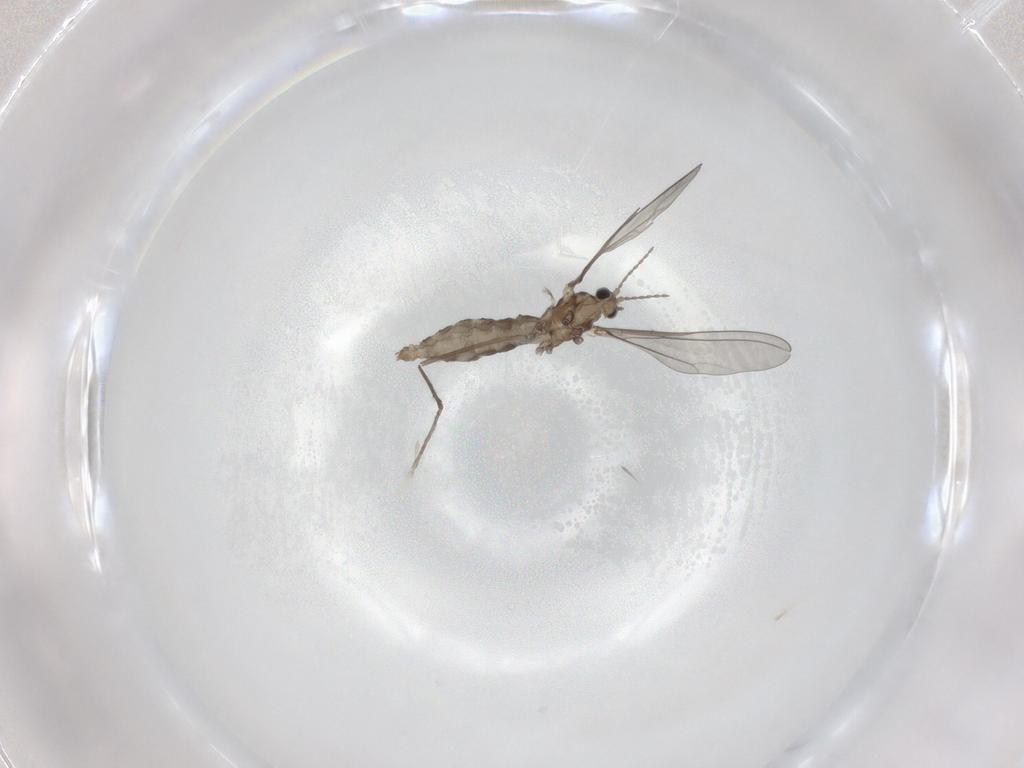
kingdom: Animalia
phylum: Arthropoda
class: Insecta
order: Diptera
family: Cecidomyiidae
